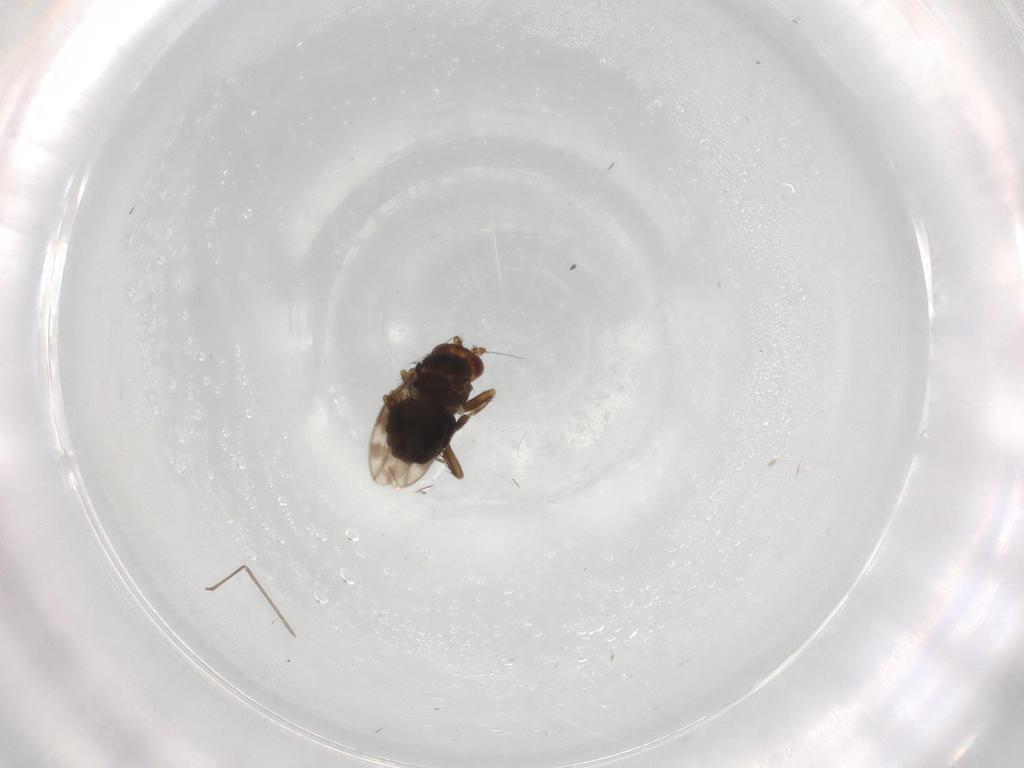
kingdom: Animalia
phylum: Arthropoda
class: Insecta
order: Diptera
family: Sphaeroceridae
